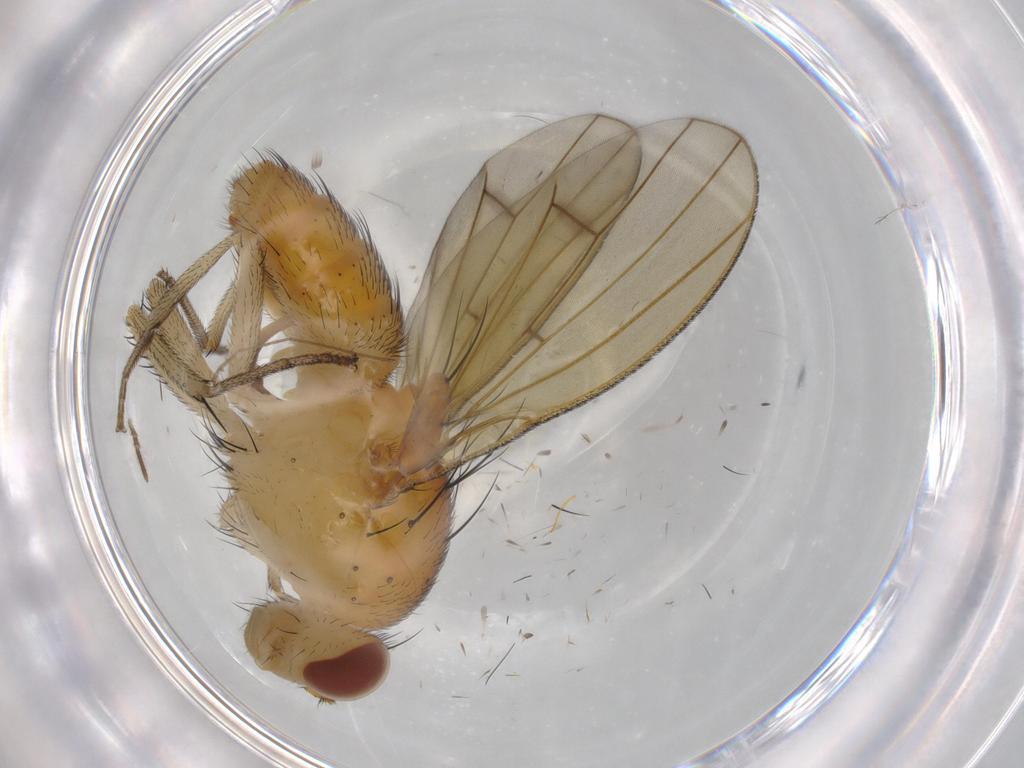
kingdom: Animalia
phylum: Arthropoda
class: Insecta
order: Diptera
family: Lauxaniidae
